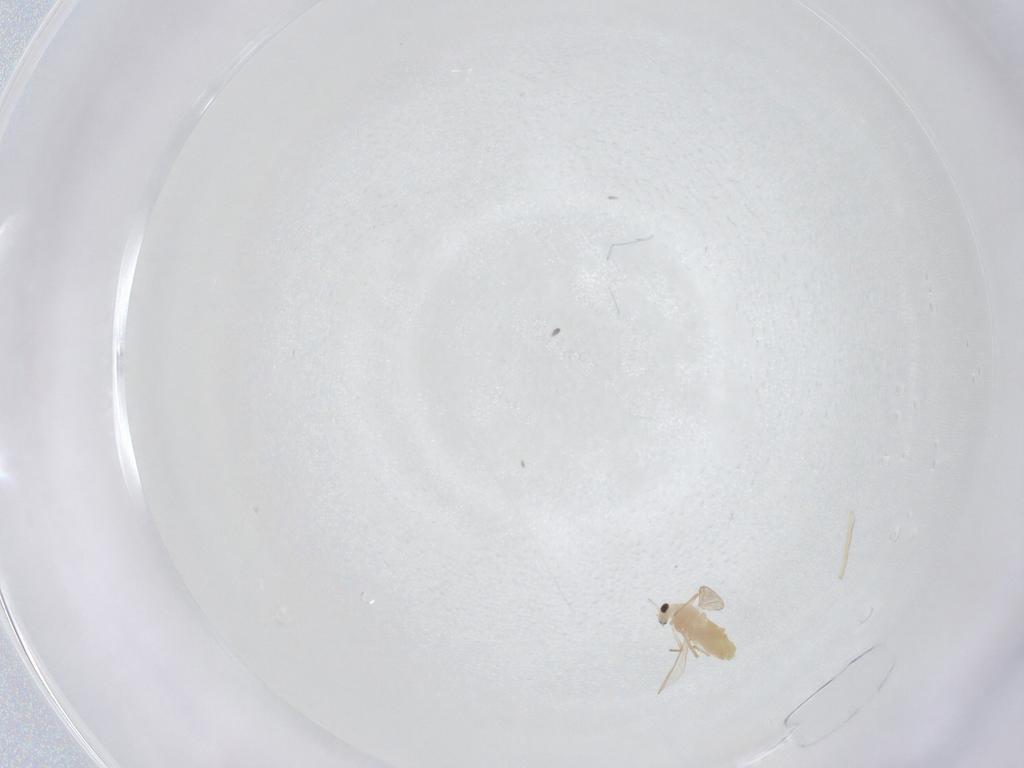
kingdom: Animalia
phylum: Arthropoda
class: Insecta
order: Diptera
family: Chironomidae
